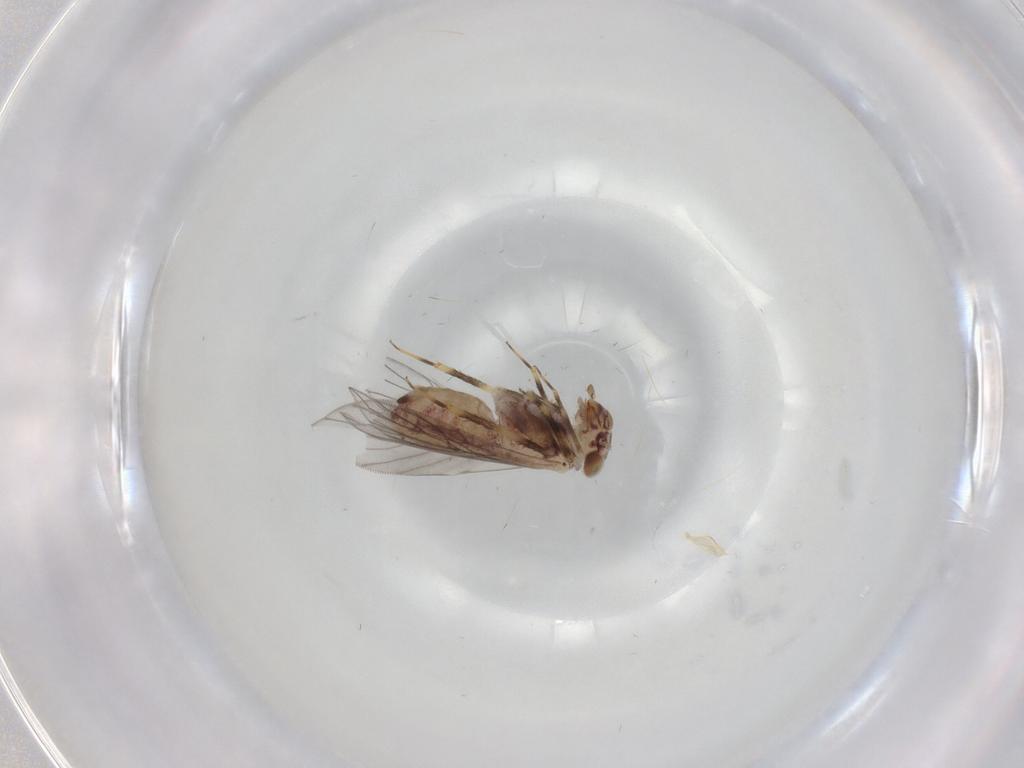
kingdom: Animalia
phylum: Arthropoda
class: Insecta
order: Psocodea
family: Lepidopsocidae
